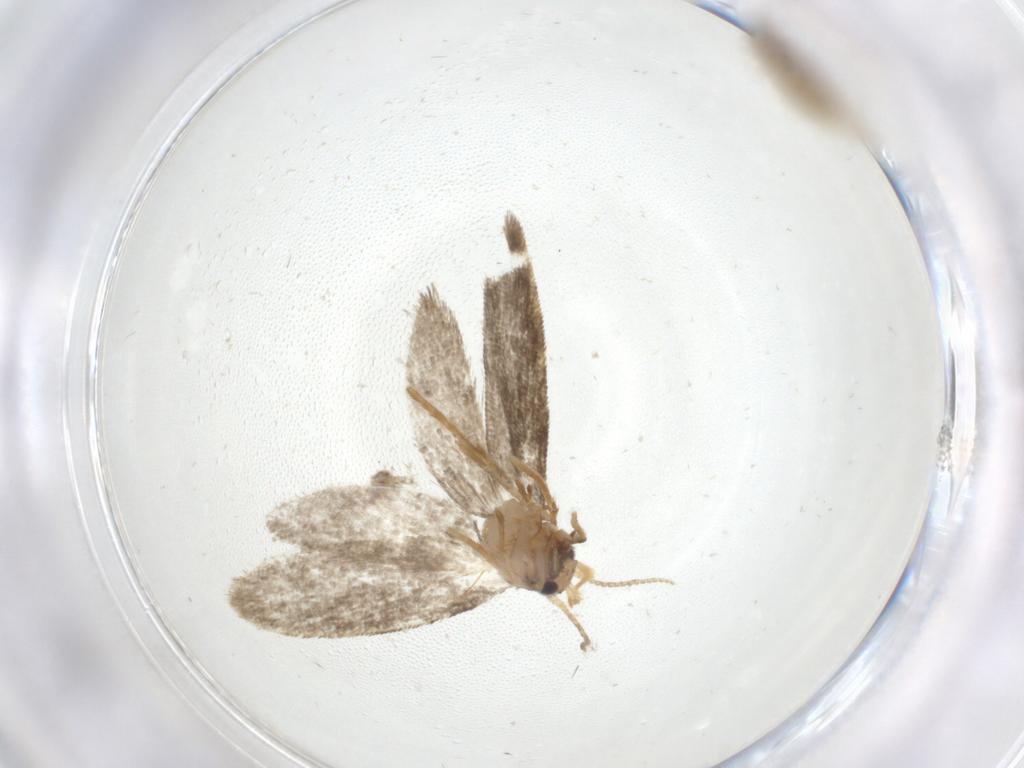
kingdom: Animalia
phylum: Arthropoda
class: Insecta
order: Lepidoptera
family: Psychidae
